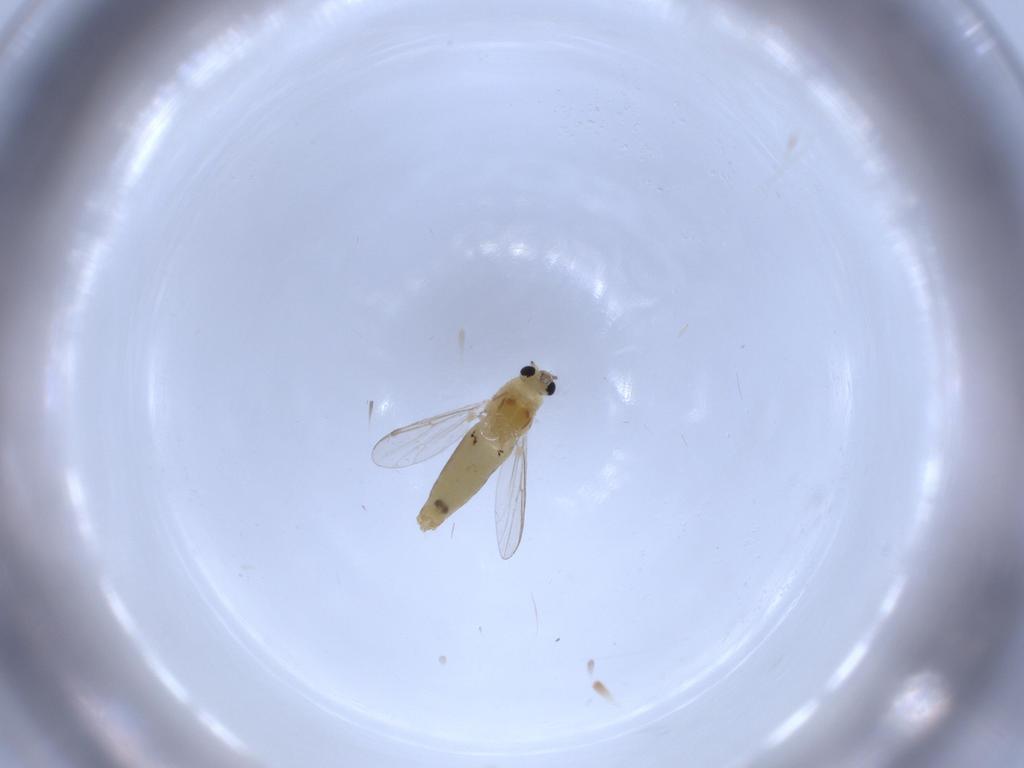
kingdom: Animalia
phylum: Arthropoda
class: Insecta
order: Diptera
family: Chironomidae
